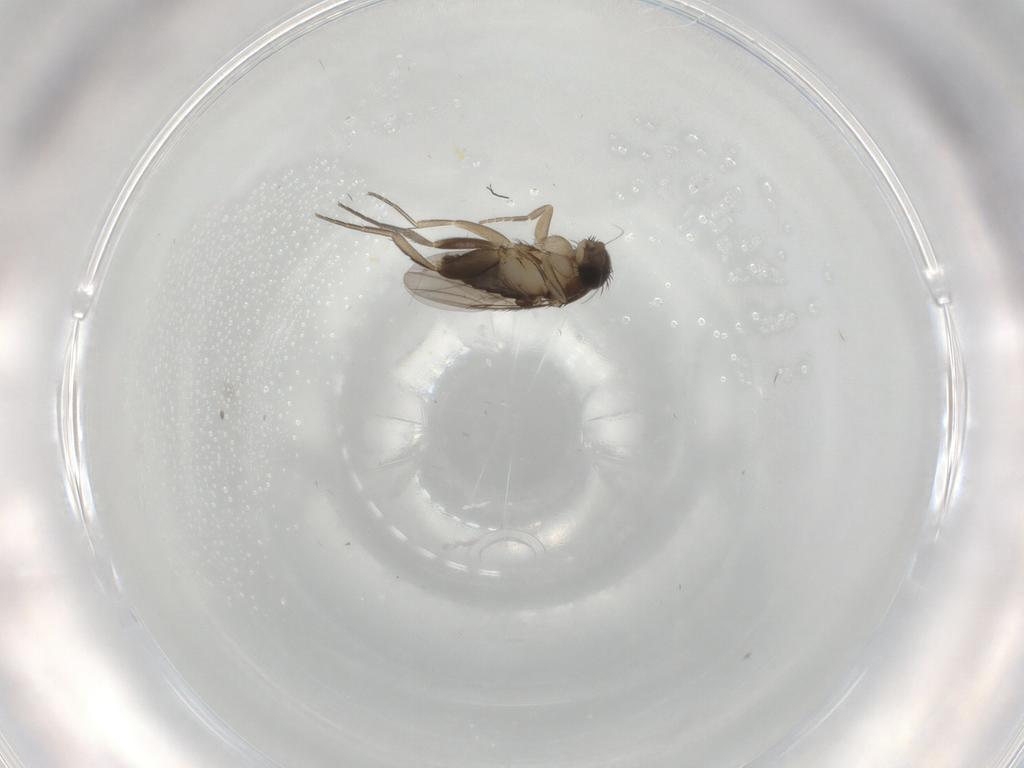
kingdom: Animalia
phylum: Arthropoda
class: Insecta
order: Diptera
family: Phoridae
